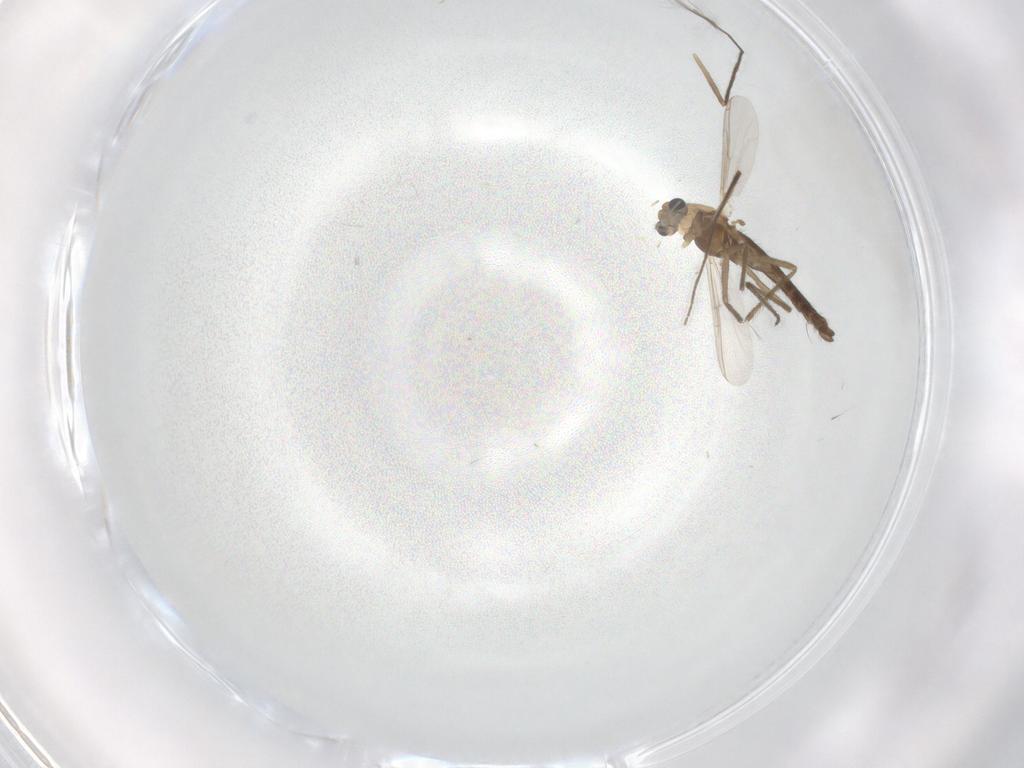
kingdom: Animalia
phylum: Arthropoda
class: Insecta
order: Diptera
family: Chironomidae
